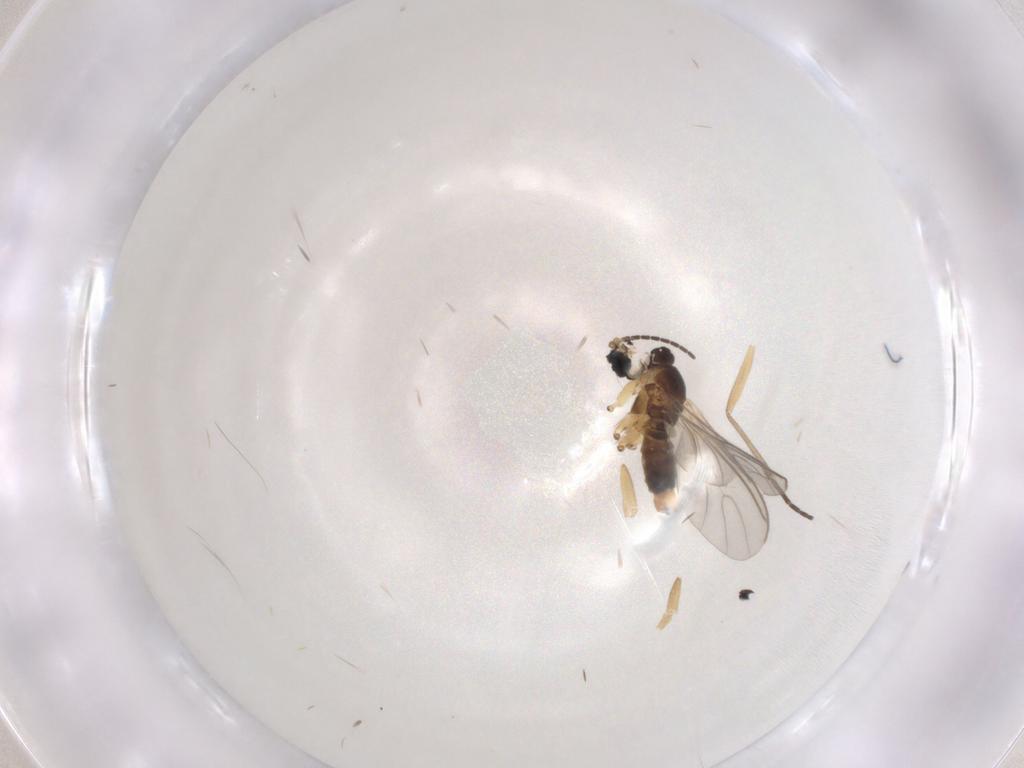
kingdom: Animalia
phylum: Arthropoda
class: Insecta
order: Diptera
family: Sciaridae
